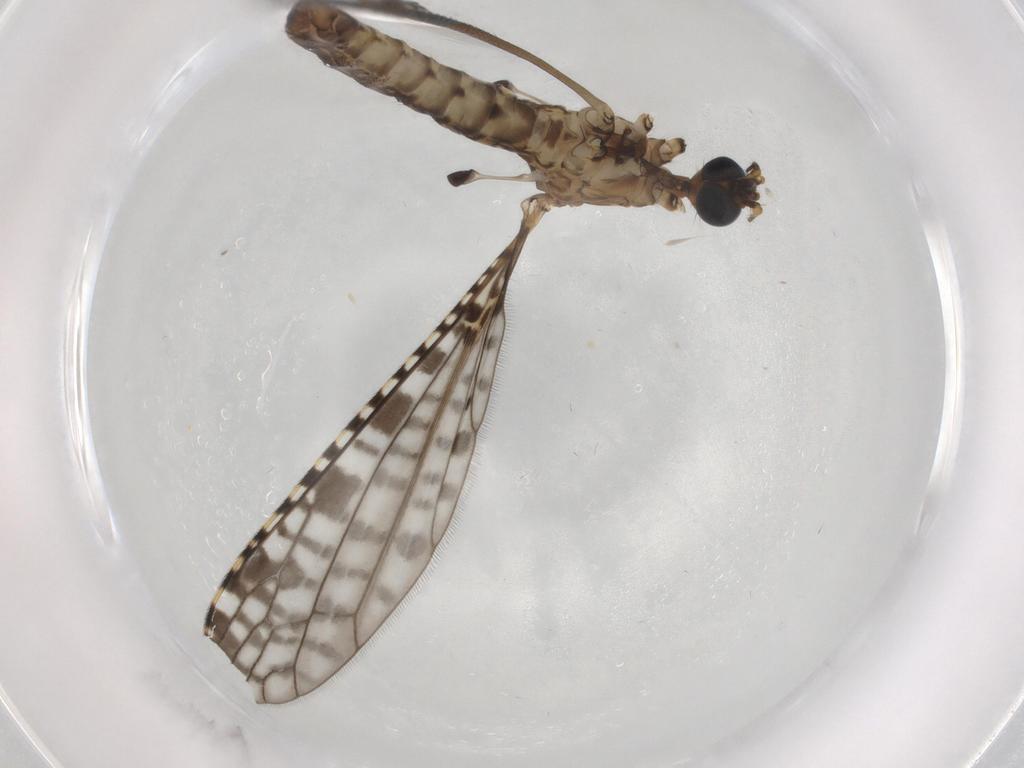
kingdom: Animalia
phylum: Arthropoda
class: Insecta
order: Diptera
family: Limoniidae
